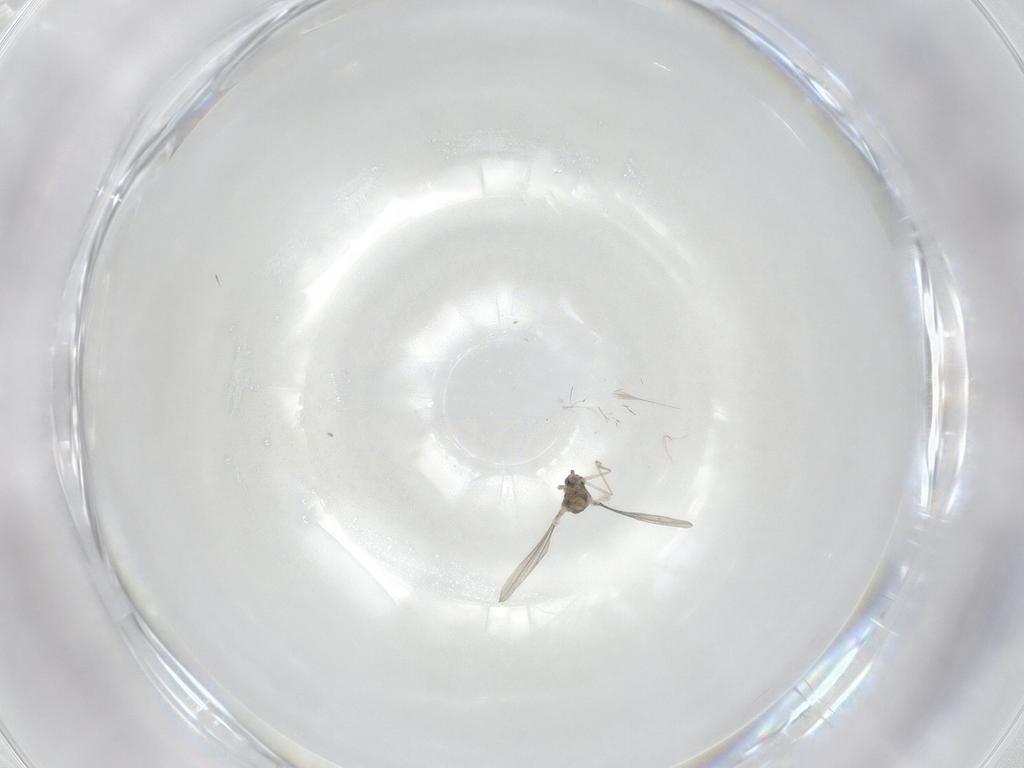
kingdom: Animalia
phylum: Arthropoda
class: Insecta
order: Diptera
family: Cecidomyiidae
